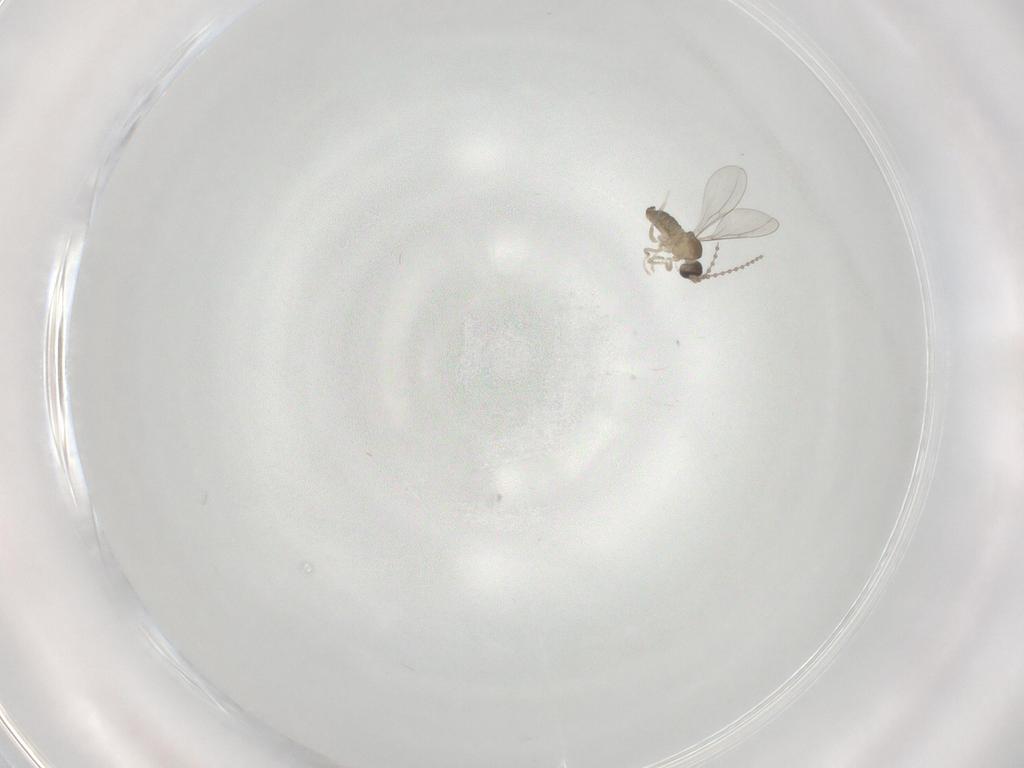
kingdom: Animalia
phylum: Arthropoda
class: Insecta
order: Diptera
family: Cecidomyiidae
